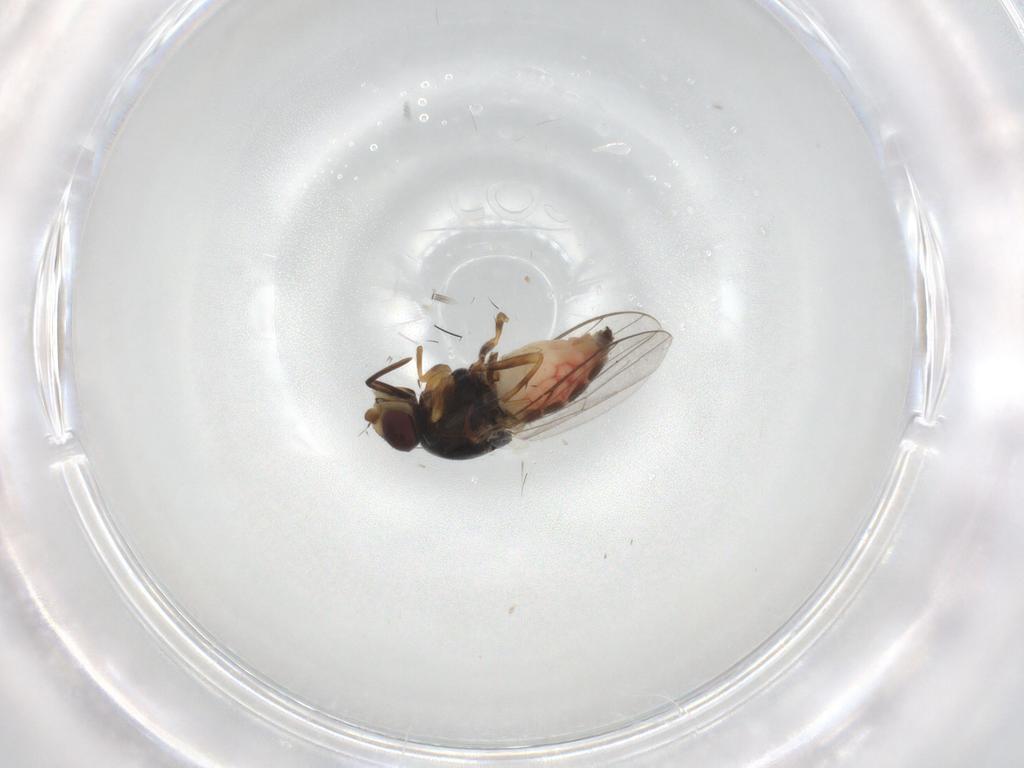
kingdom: Animalia
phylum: Arthropoda
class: Insecta
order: Diptera
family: Chloropidae
